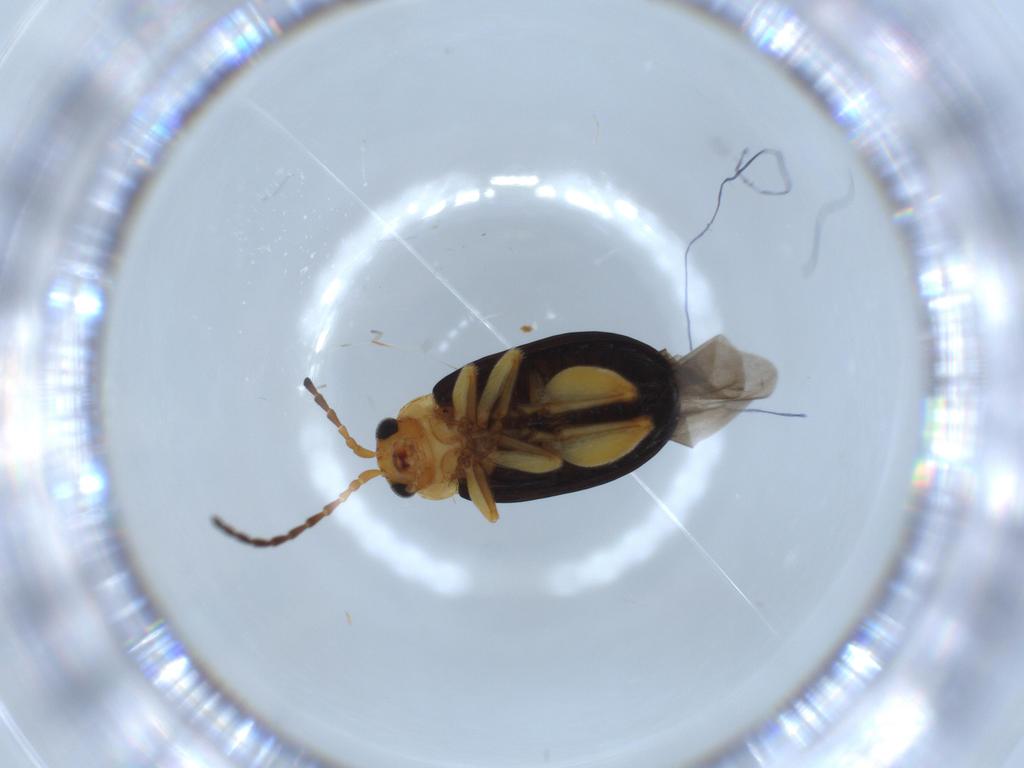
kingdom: Animalia
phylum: Arthropoda
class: Insecta
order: Coleoptera
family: Chrysomelidae
